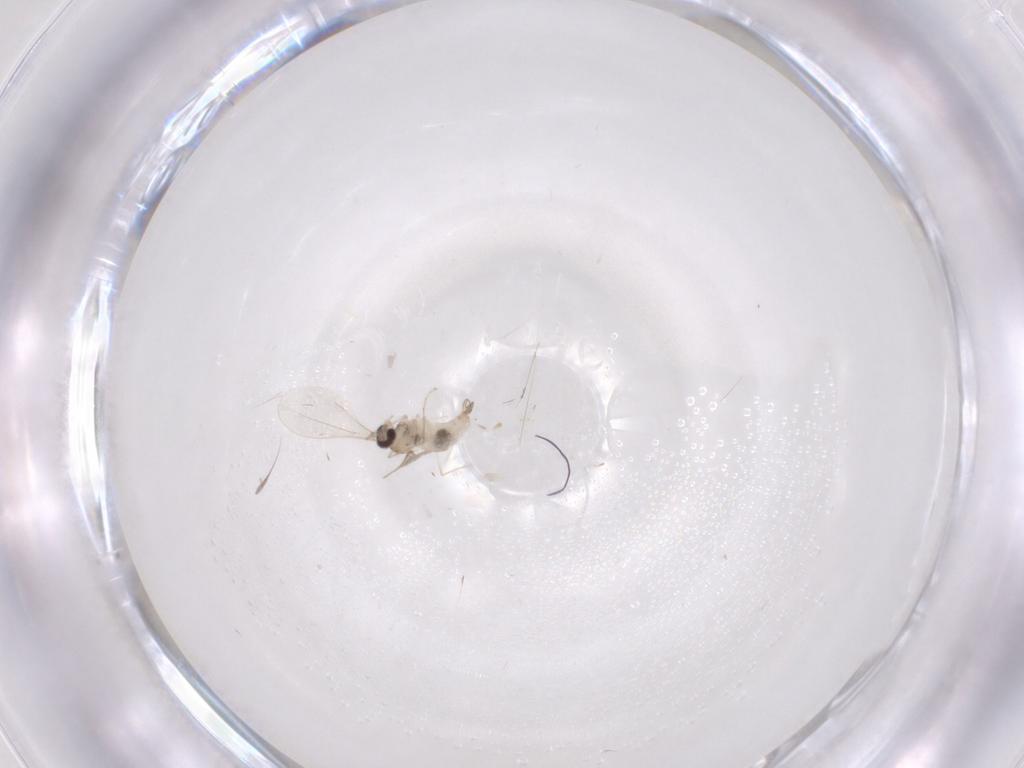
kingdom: Animalia
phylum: Arthropoda
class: Insecta
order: Diptera
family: Cecidomyiidae
